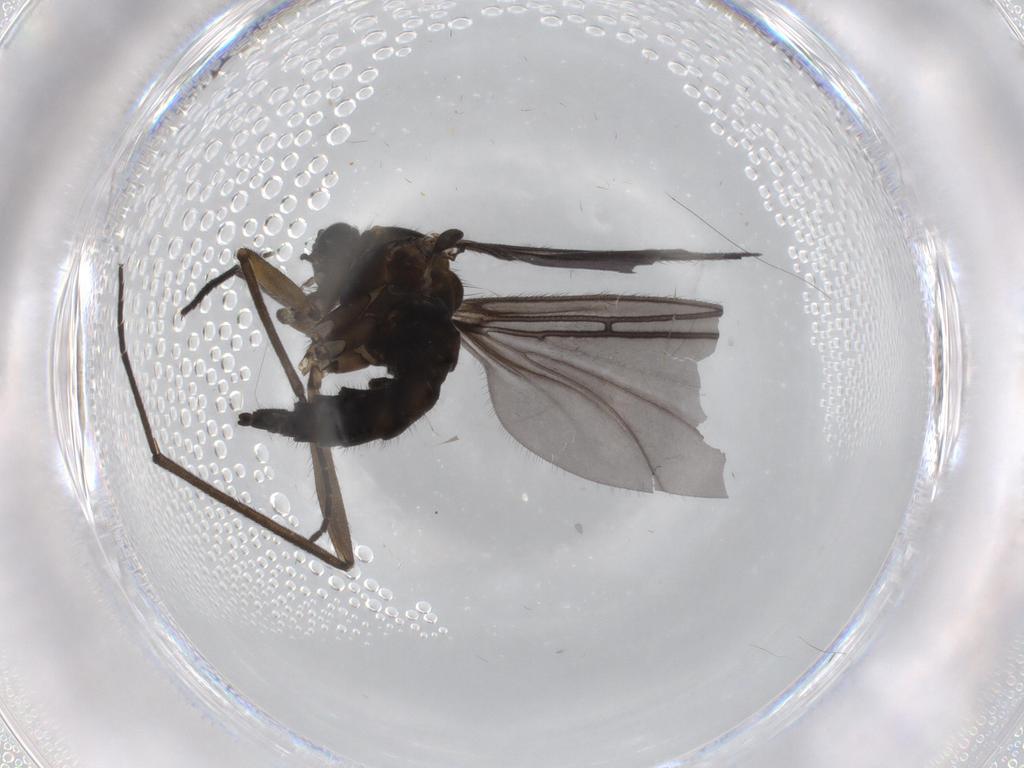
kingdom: Animalia
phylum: Arthropoda
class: Insecta
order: Diptera
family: Sciaridae
